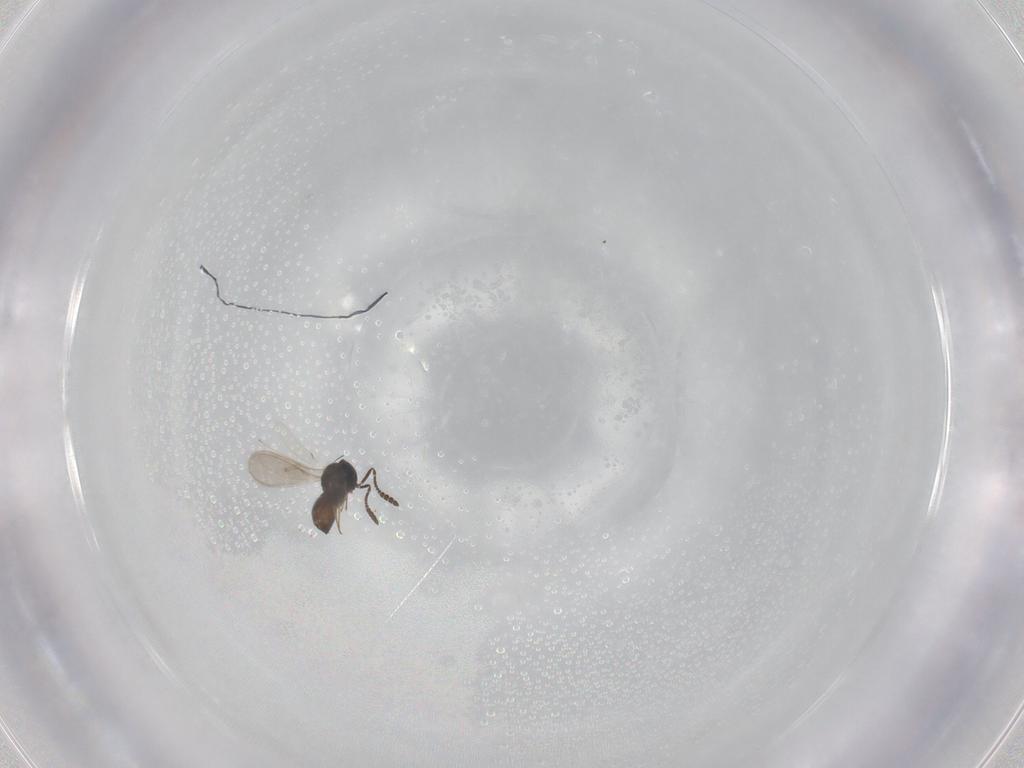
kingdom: Animalia
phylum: Arthropoda
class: Insecta
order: Hymenoptera
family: Scelionidae
